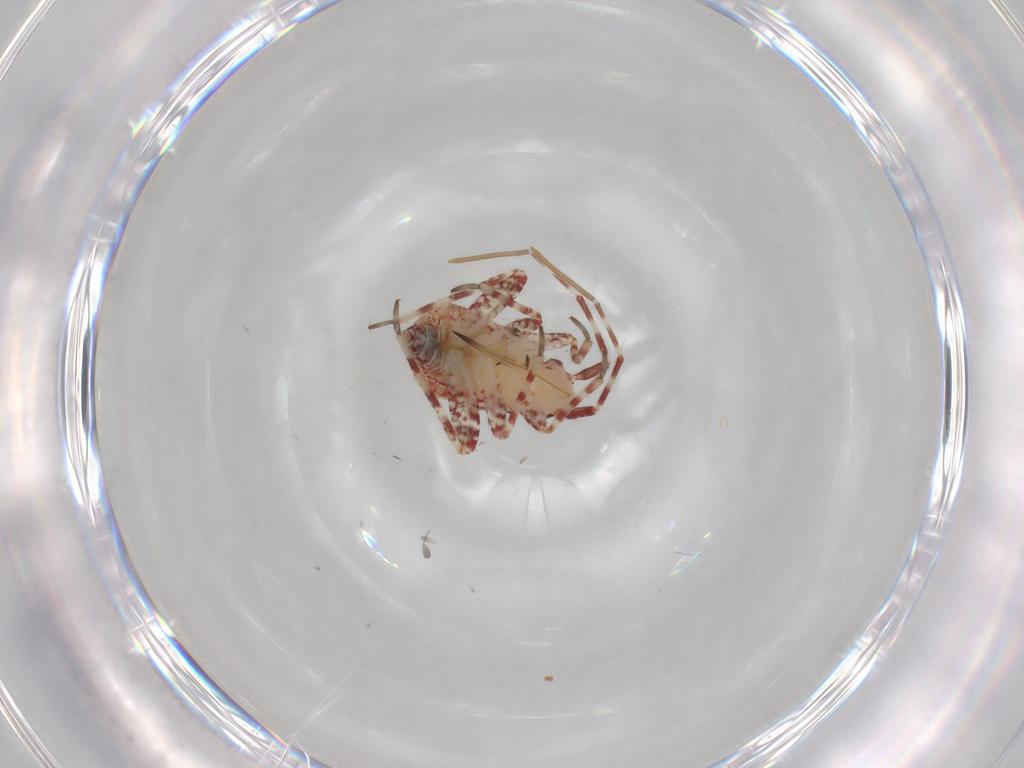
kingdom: Animalia
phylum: Arthropoda
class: Insecta
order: Hemiptera
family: Miridae
